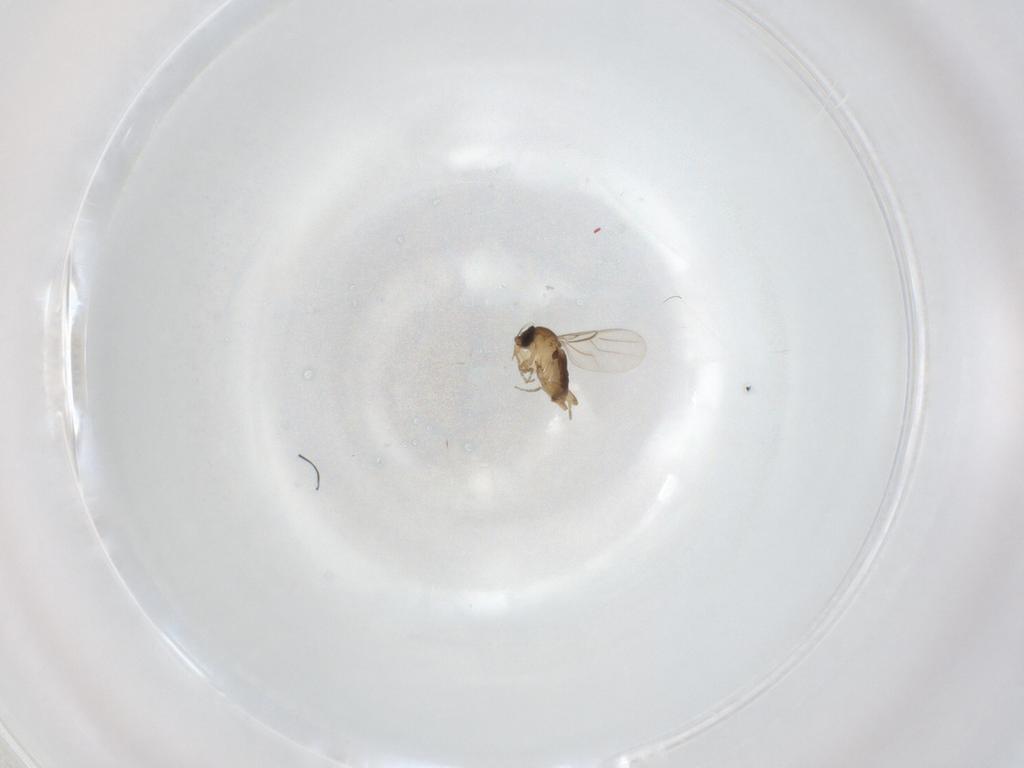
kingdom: Animalia
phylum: Arthropoda
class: Insecta
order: Diptera
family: Phoridae
